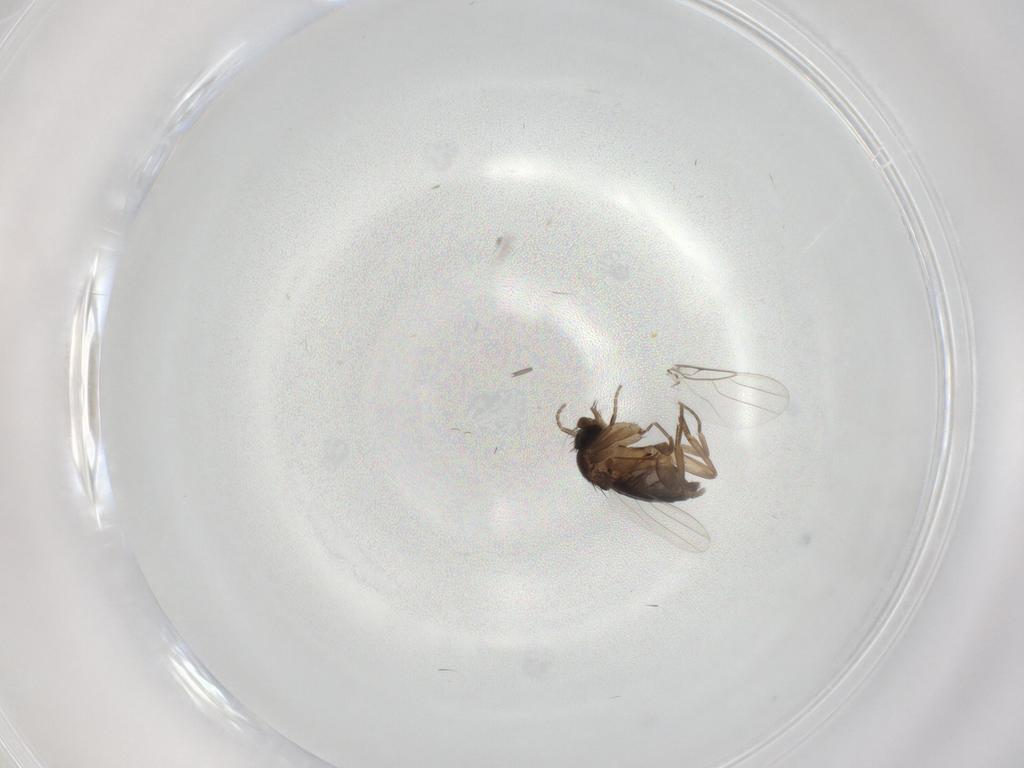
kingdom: Animalia
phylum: Arthropoda
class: Insecta
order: Diptera
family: Phoridae
